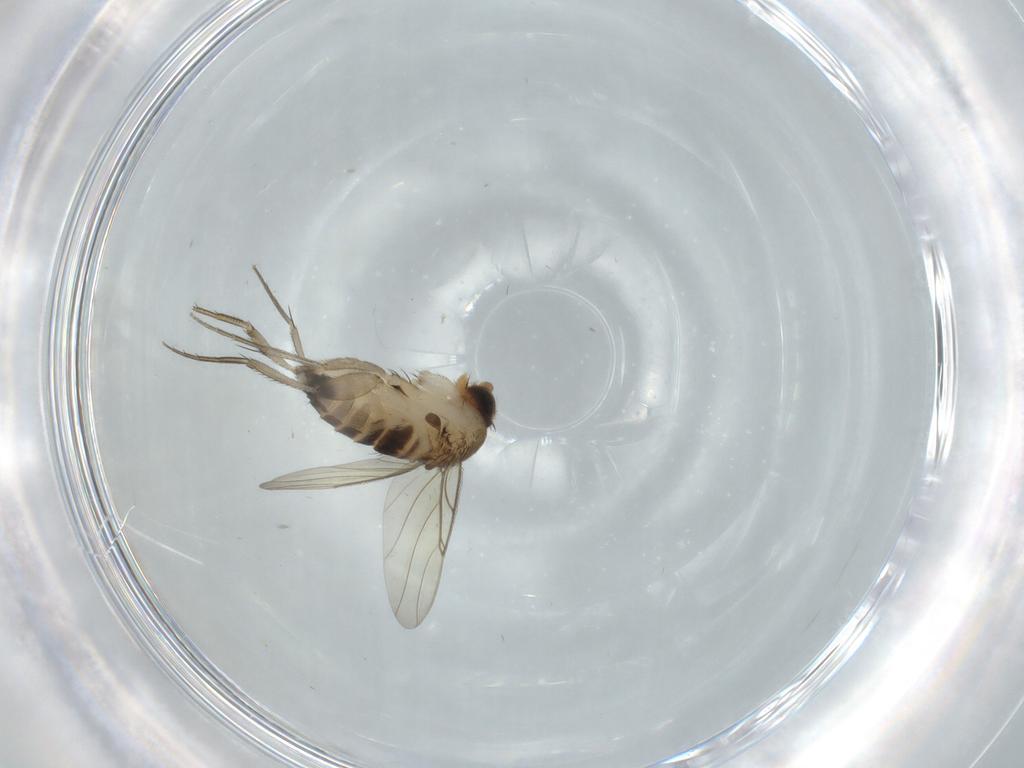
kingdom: Animalia
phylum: Arthropoda
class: Insecta
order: Diptera
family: Phoridae
